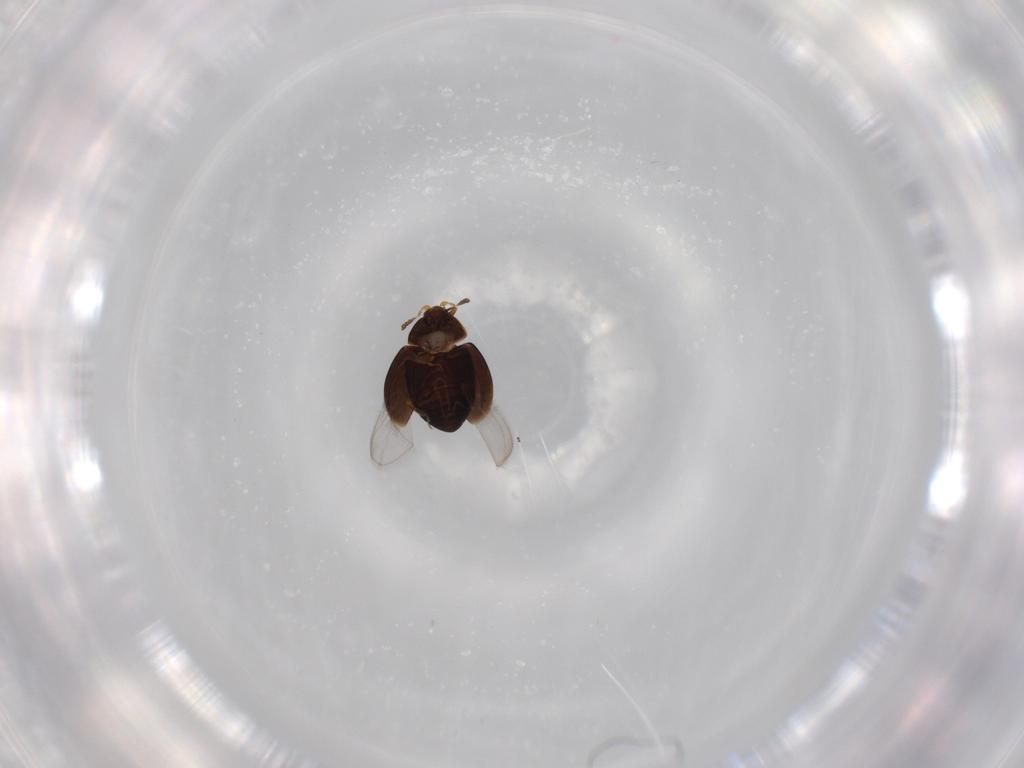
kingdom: Animalia
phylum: Arthropoda
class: Insecta
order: Coleoptera
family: Corylophidae
